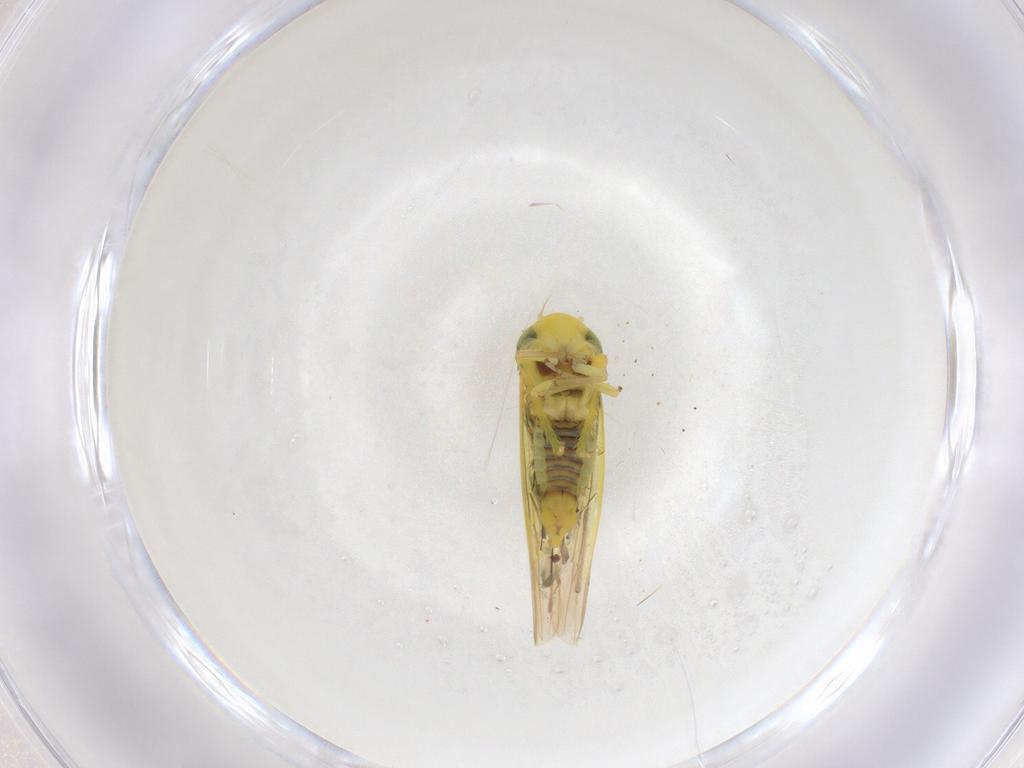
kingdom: Animalia
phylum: Arthropoda
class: Insecta
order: Hemiptera
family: Cicadellidae
